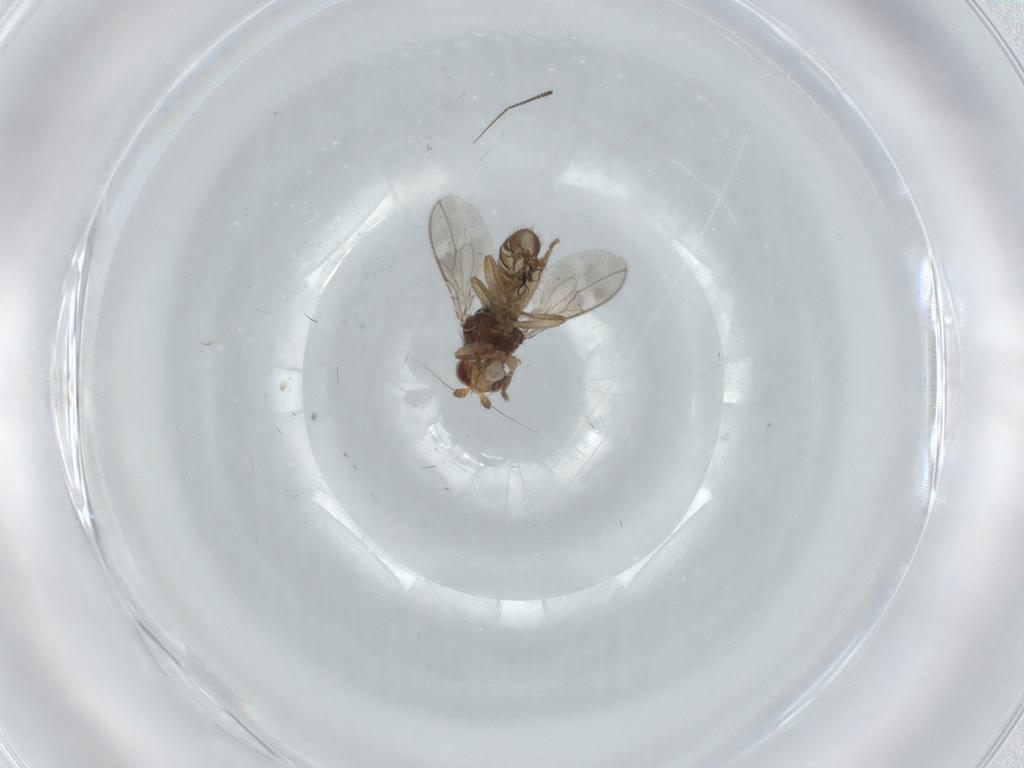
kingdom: Animalia
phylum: Arthropoda
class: Insecta
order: Diptera
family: Sphaeroceridae
